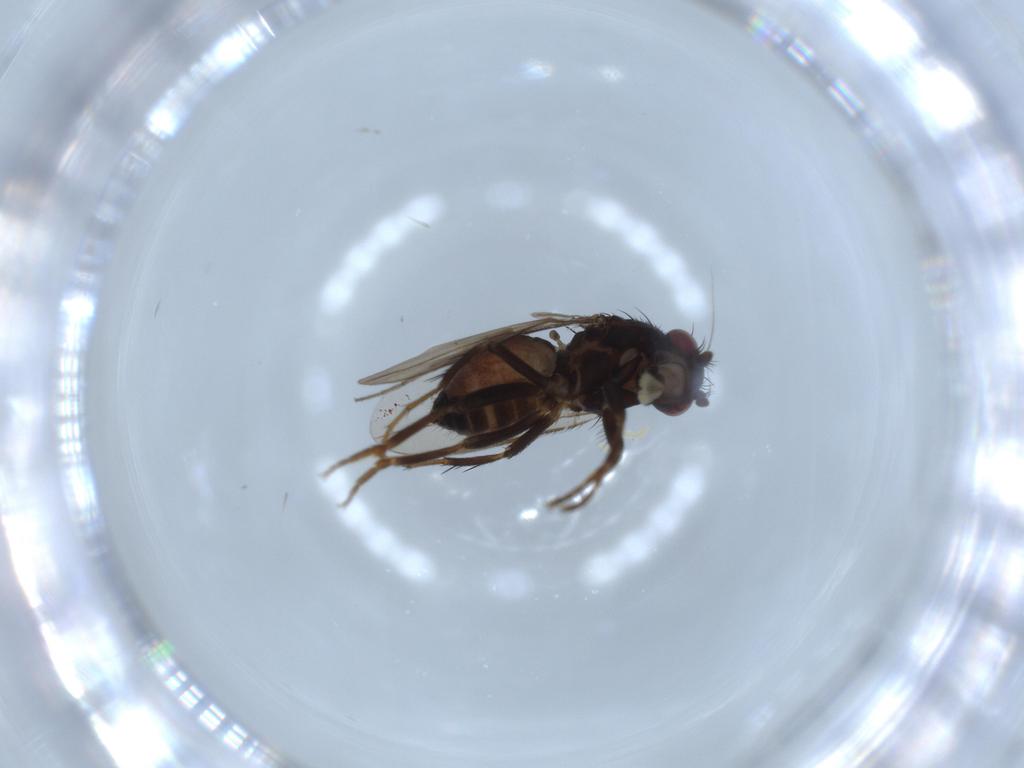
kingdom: Animalia
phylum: Arthropoda
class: Insecta
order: Diptera
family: Cecidomyiidae
